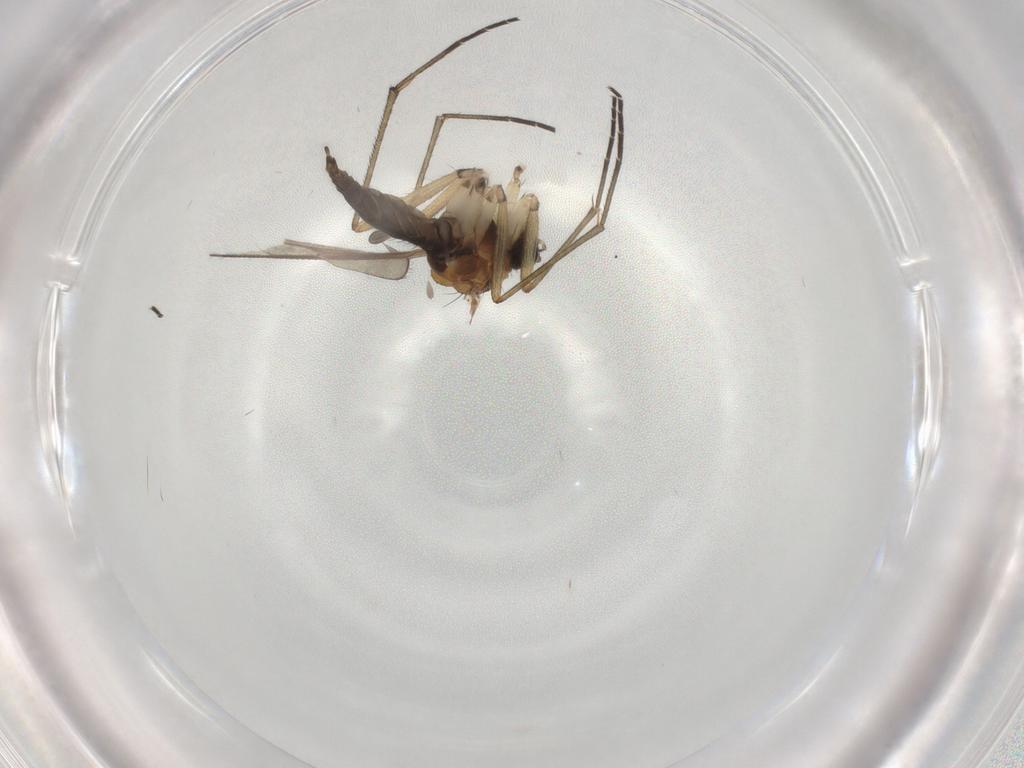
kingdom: Animalia
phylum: Arthropoda
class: Insecta
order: Diptera
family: Sciaridae
